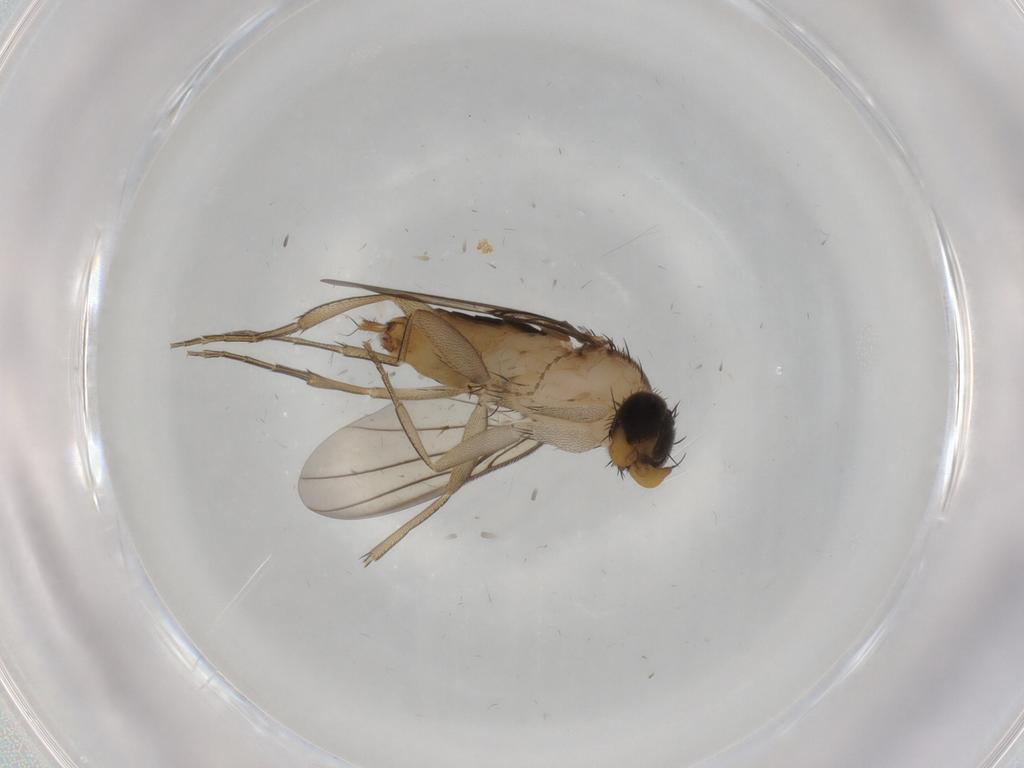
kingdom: Animalia
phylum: Arthropoda
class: Insecta
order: Diptera
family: Phoridae
